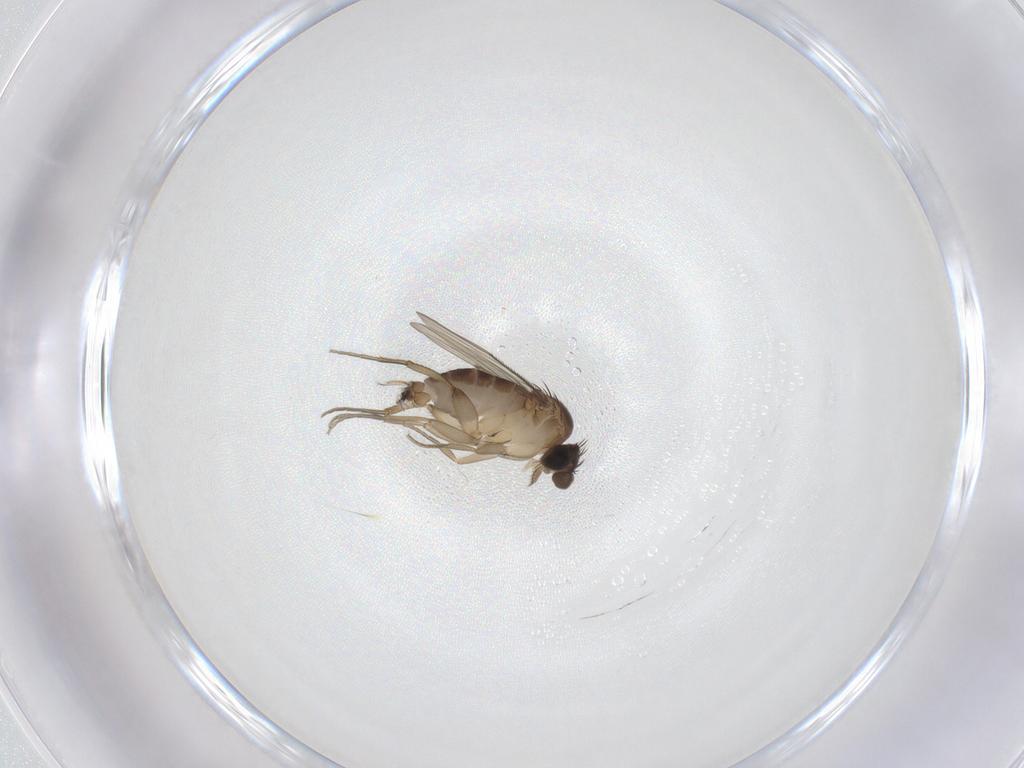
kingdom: Animalia
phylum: Arthropoda
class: Insecta
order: Diptera
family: Phoridae
